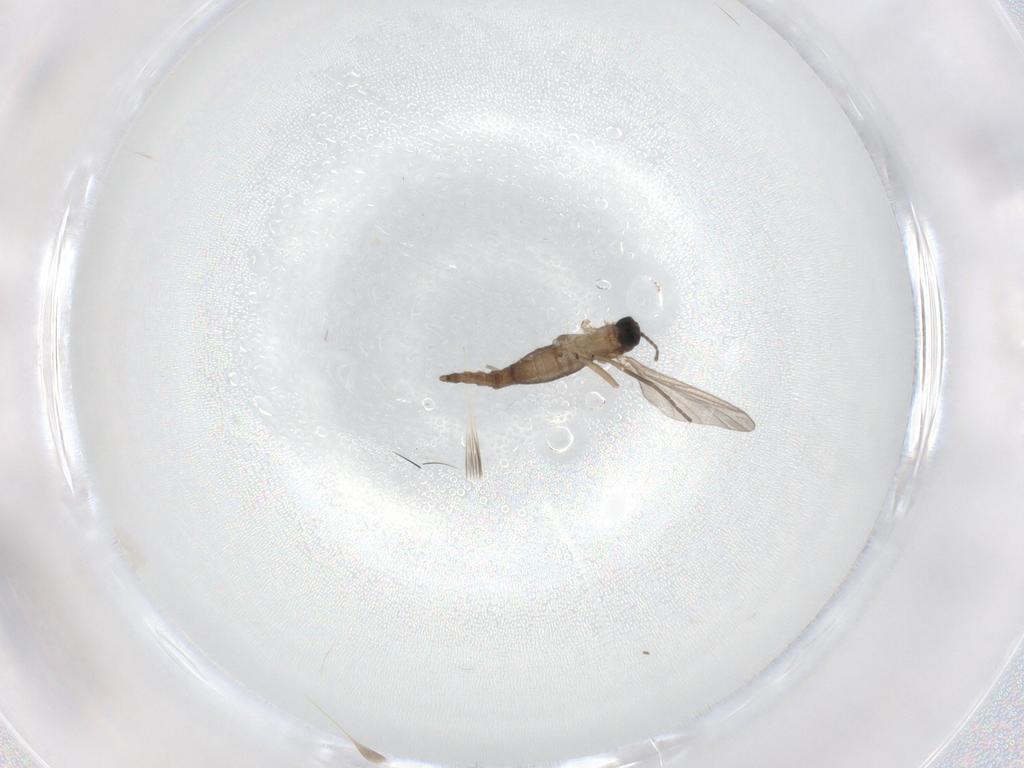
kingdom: Animalia
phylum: Arthropoda
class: Insecta
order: Diptera
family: Sciaridae
